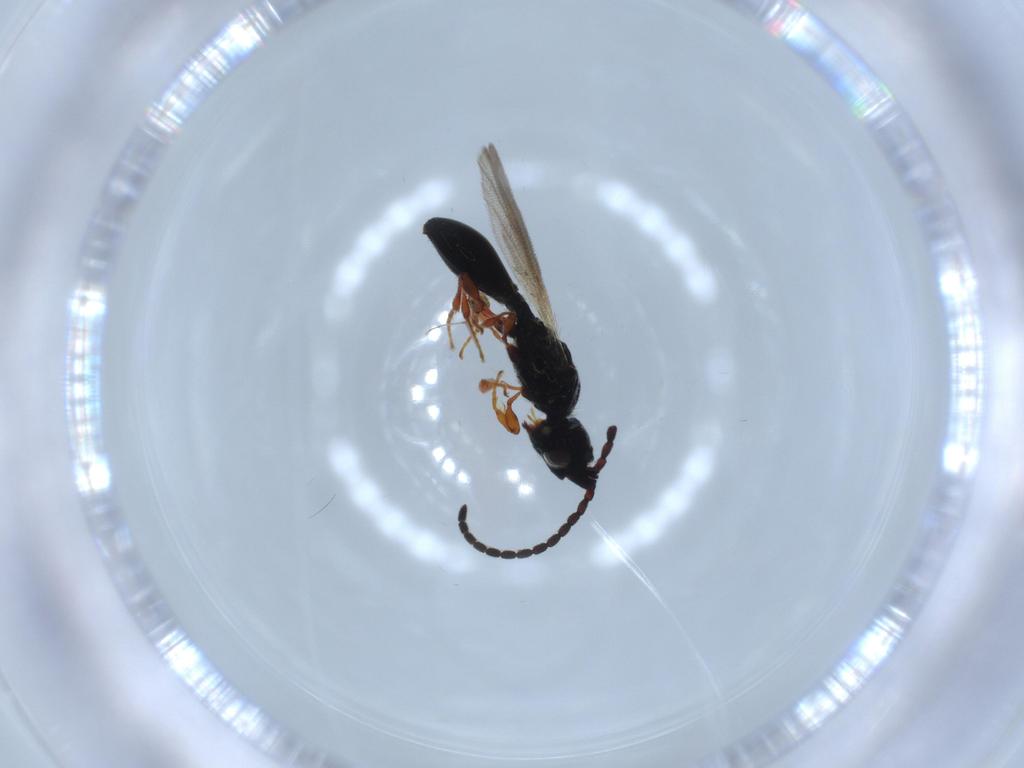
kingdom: Animalia
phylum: Arthropoda
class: Insecta
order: Hymenoptera
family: Diapriidae
